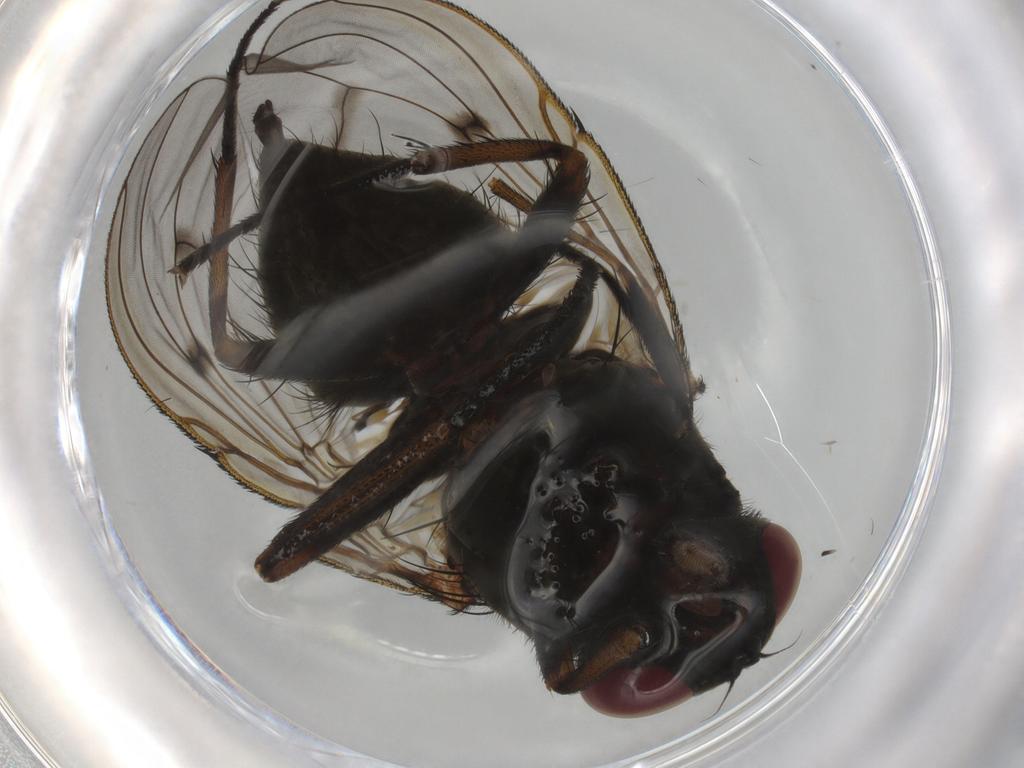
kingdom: Animalia
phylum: Arthropoda
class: Insecta
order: Diptera
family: Muscidae
